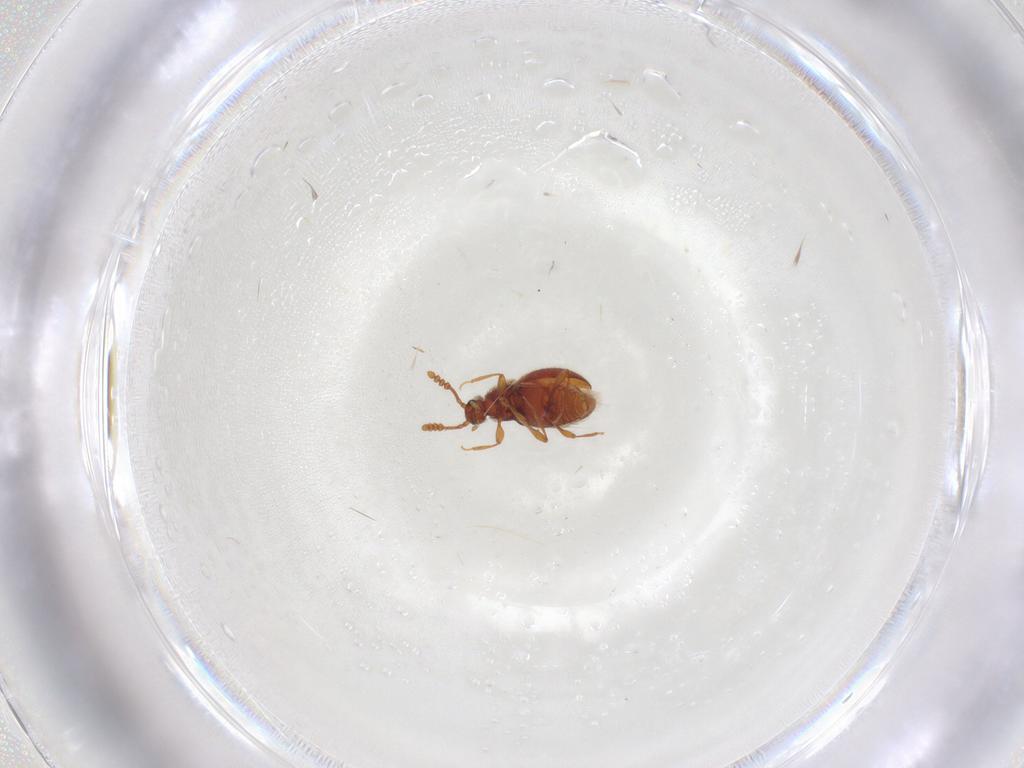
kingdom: Animalia
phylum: Arthropoda
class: Insecta
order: Coleoptera
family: Staphylinidae
